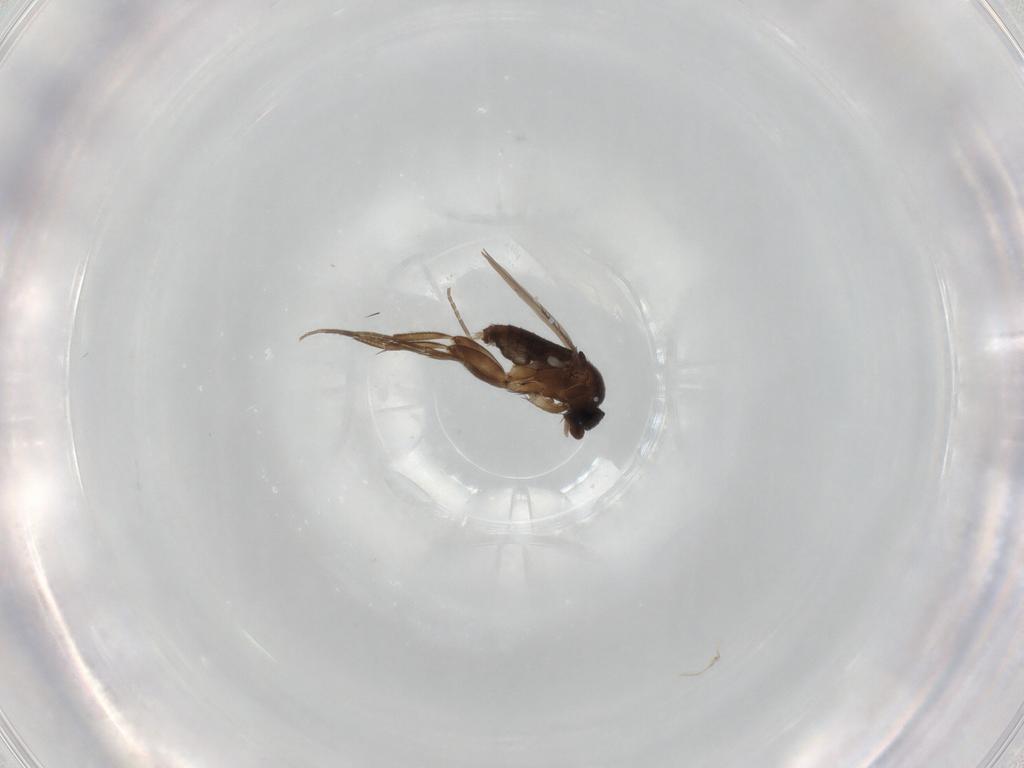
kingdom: Animalia
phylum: Arthropoda
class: Insecta
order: Diptera
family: Phoridae
